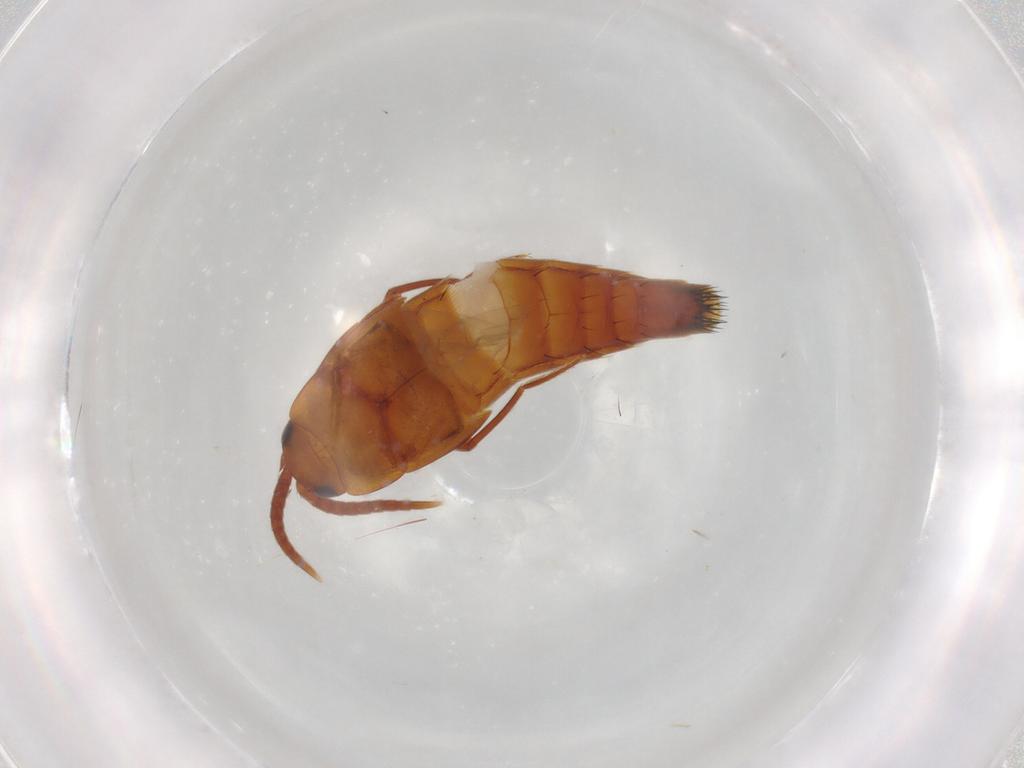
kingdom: Animalia
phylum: Arthropoda
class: Insecta
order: Coleoptera
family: Staphylinidae
